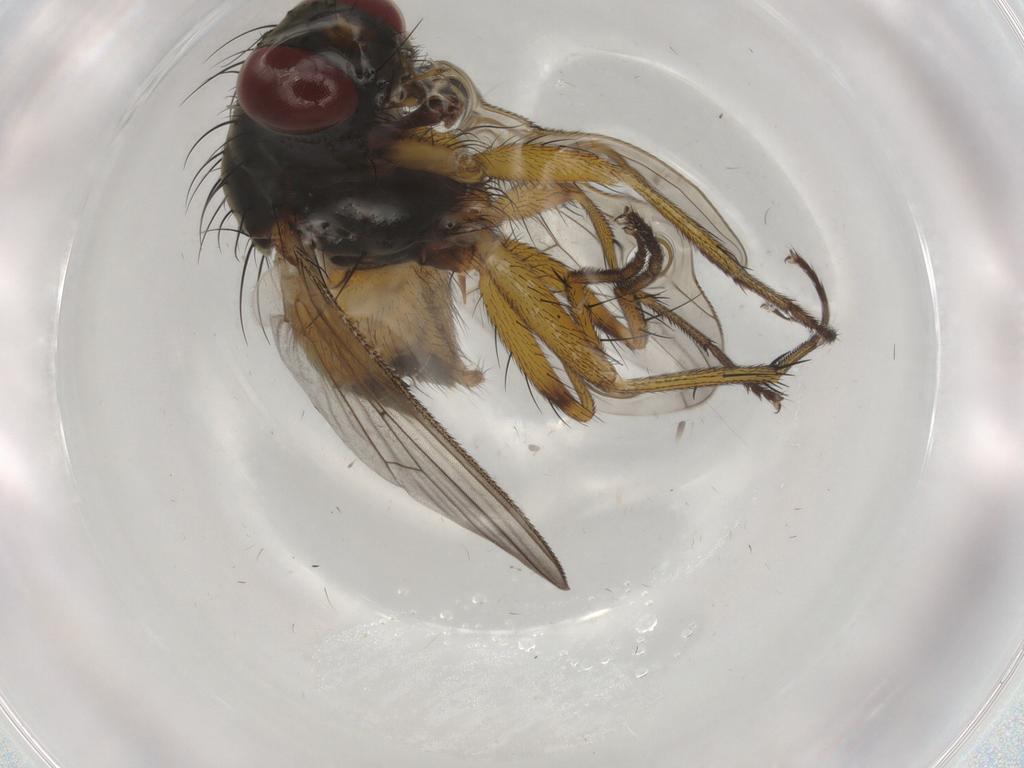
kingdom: Animalia
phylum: Arthropoda
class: Insecta
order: Diptera
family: Muscidae
